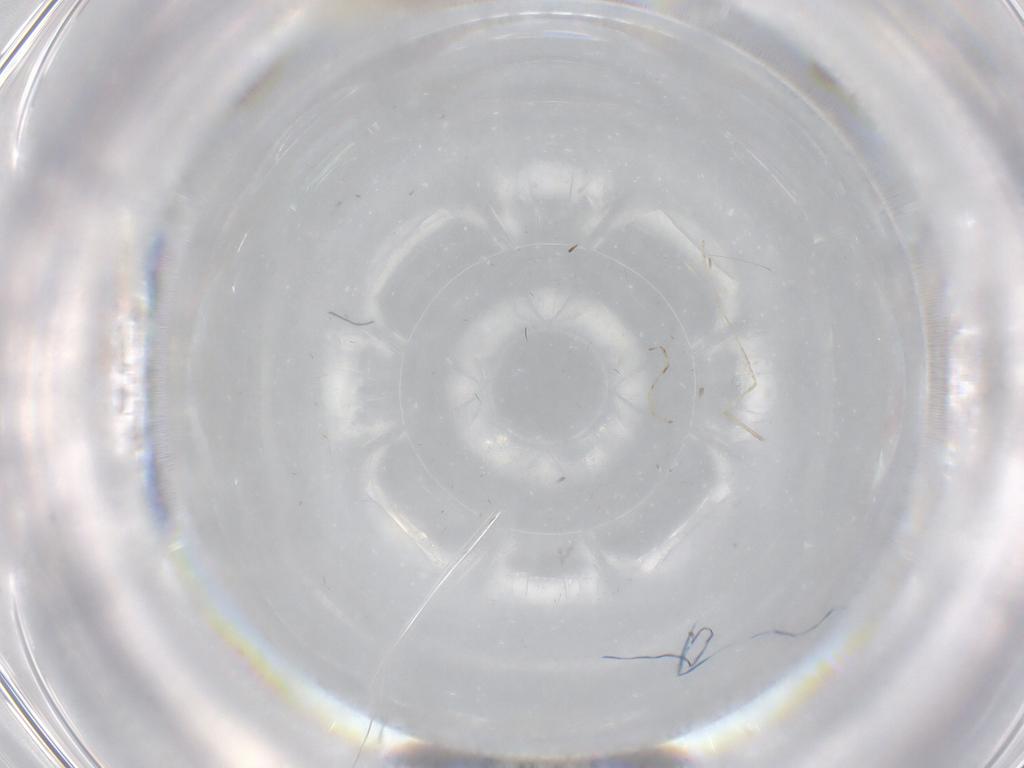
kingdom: Animalia
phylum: Arthropoda
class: Insecta
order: Hemiptera
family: Aleyrodidae
